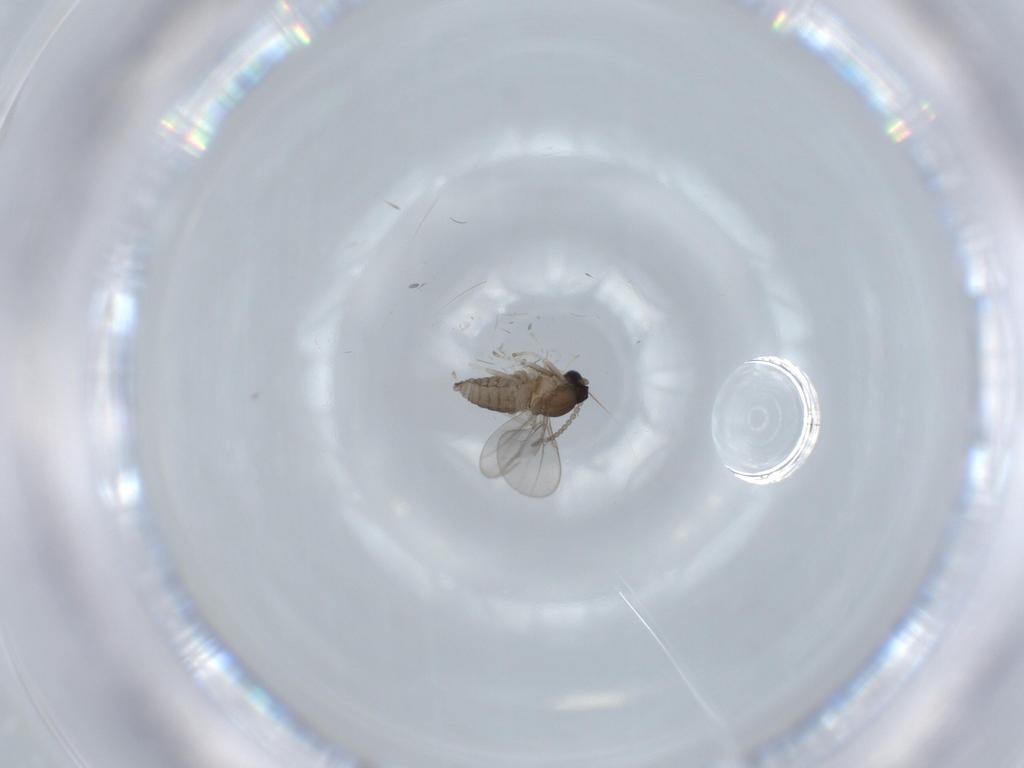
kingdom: Animalia
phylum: Arthropoda
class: Insecta
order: Diptera
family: Cecidomyiidae
